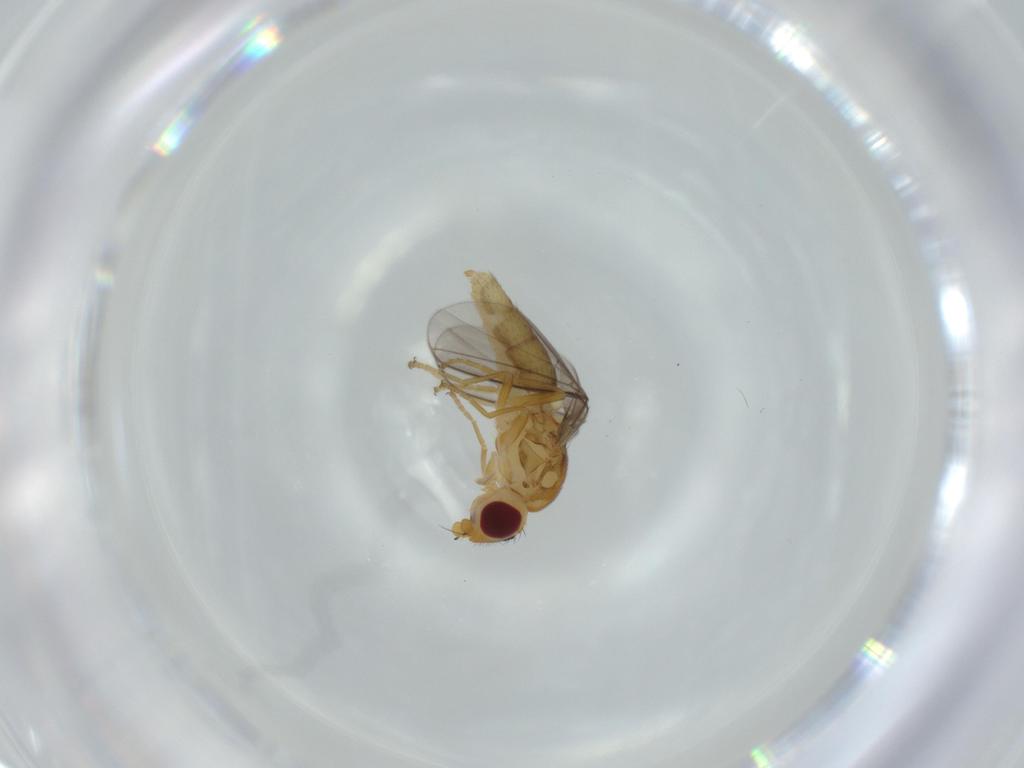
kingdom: Animalia
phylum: Arthropoda
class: Insecta
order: Diptera
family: Chloropidae
